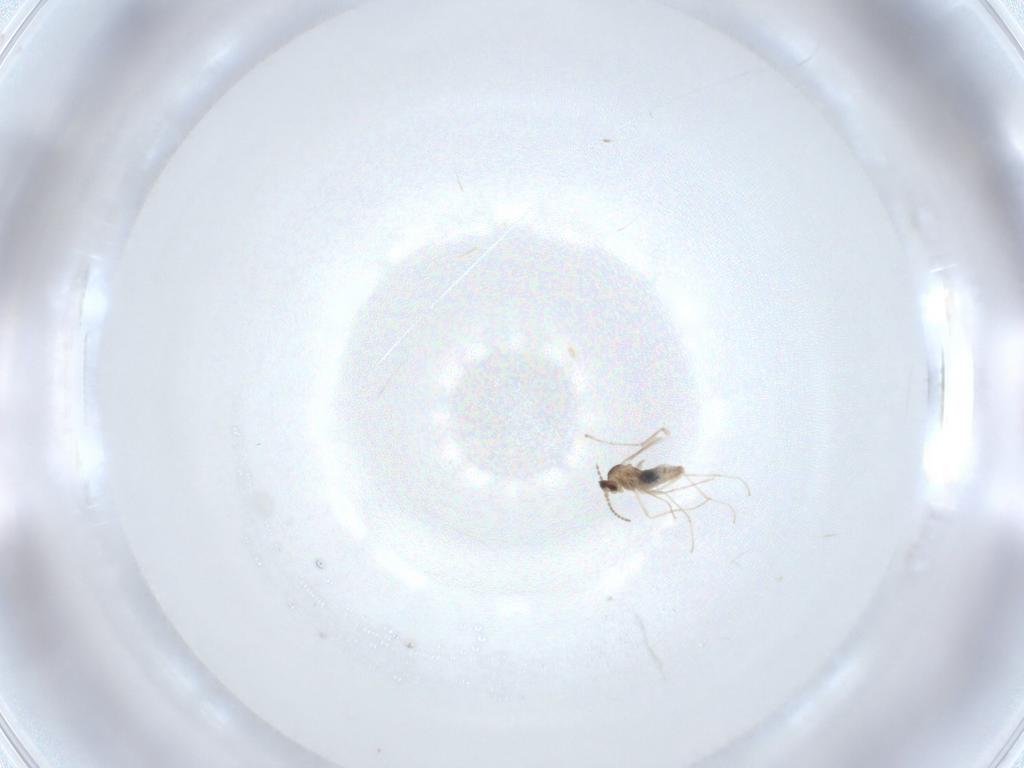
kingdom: Animalia
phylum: Arthropoda
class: Insecta
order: Diptera
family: Cecidomyiidae
